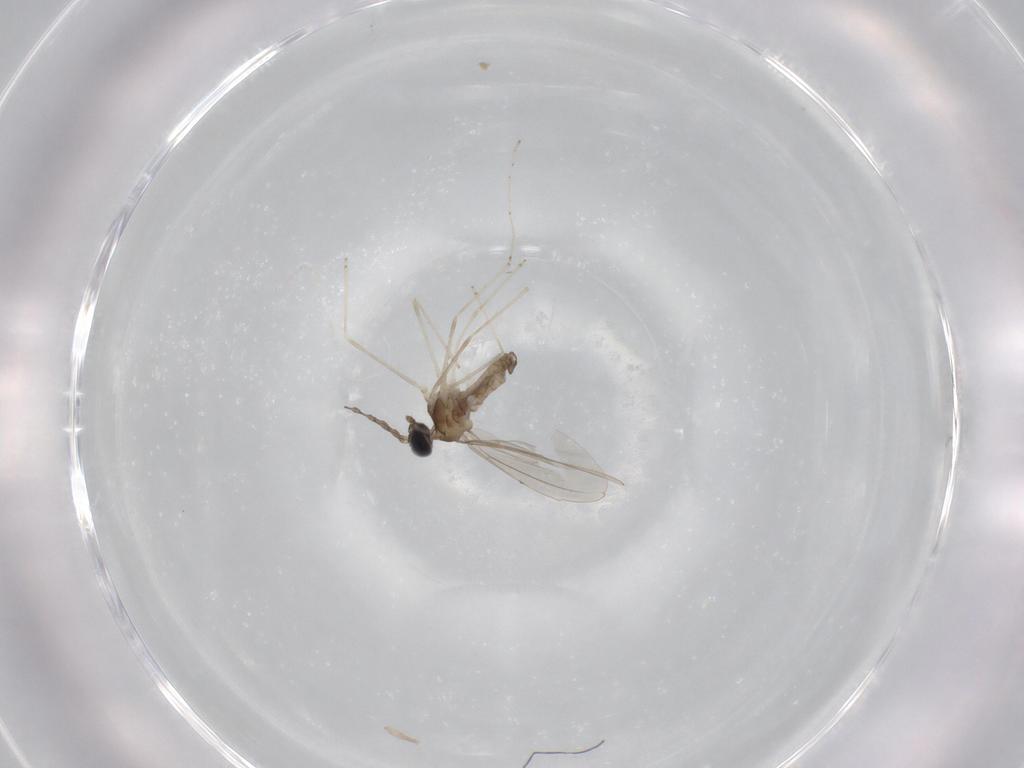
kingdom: Animalia
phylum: Arthropoda
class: Insecta
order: Diptera
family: Cecidomyiidae
